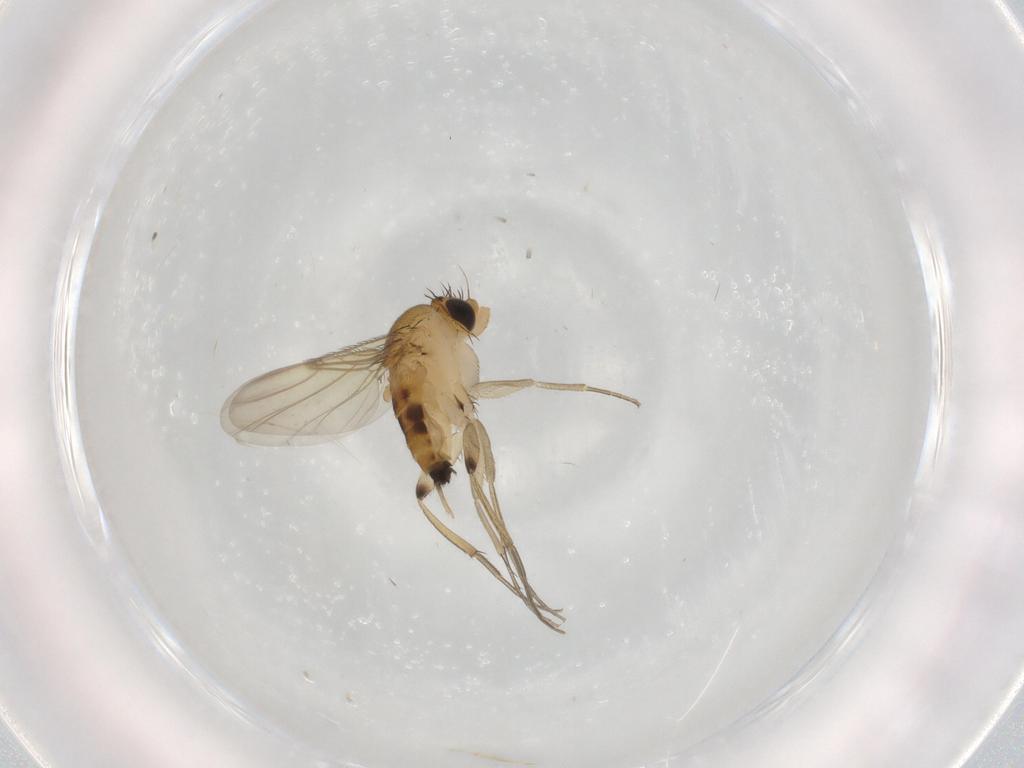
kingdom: Animalia
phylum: Arthropoda
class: Insecta
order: Diptera
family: Phoridae
